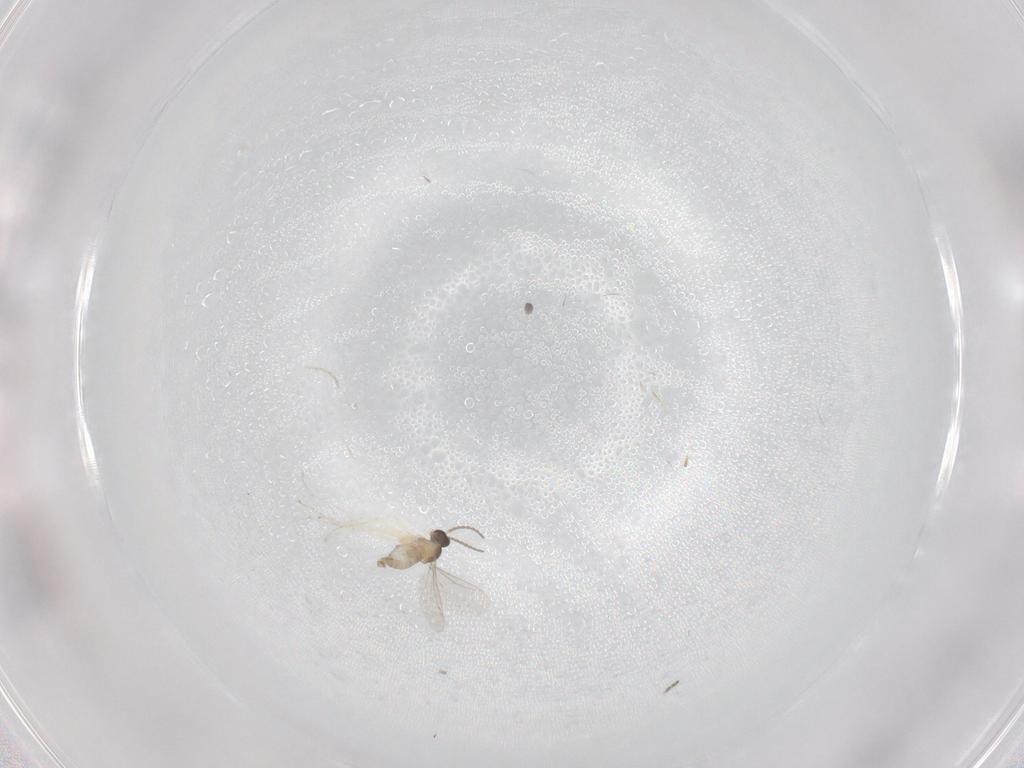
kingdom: Animalia
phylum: Arthropoda
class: Insecta
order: Diptera
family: Cecidomyiidae
